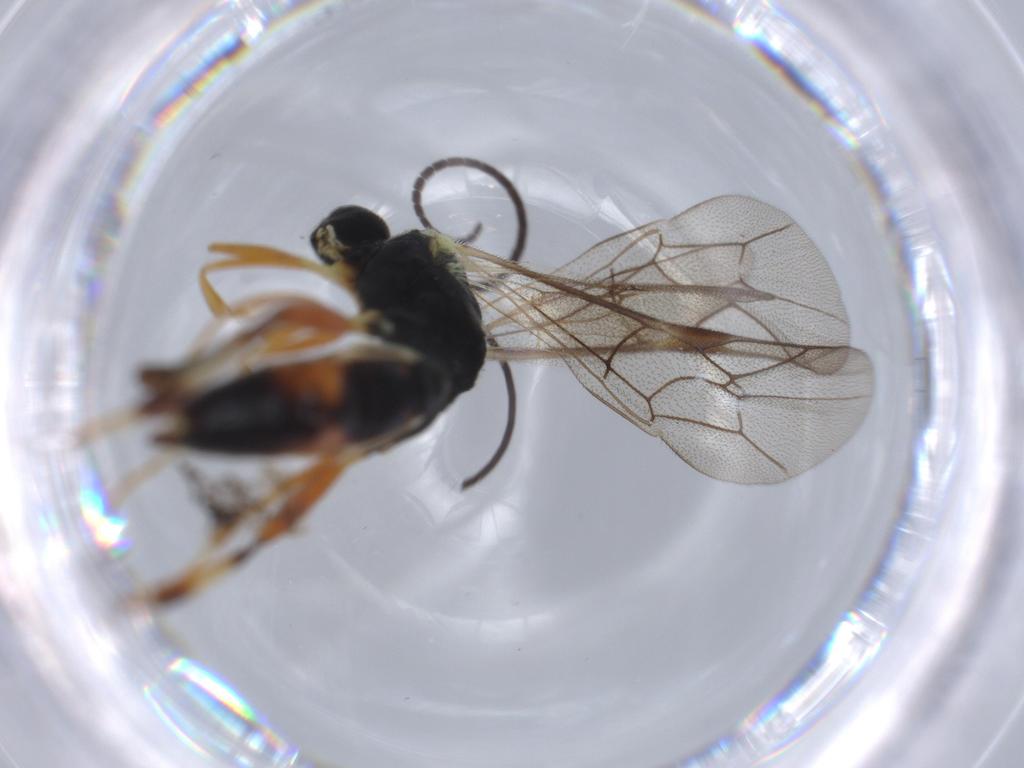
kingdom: Animalia
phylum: Arthropoda
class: Insecta
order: Hymenoptera
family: Ichneumonidae
